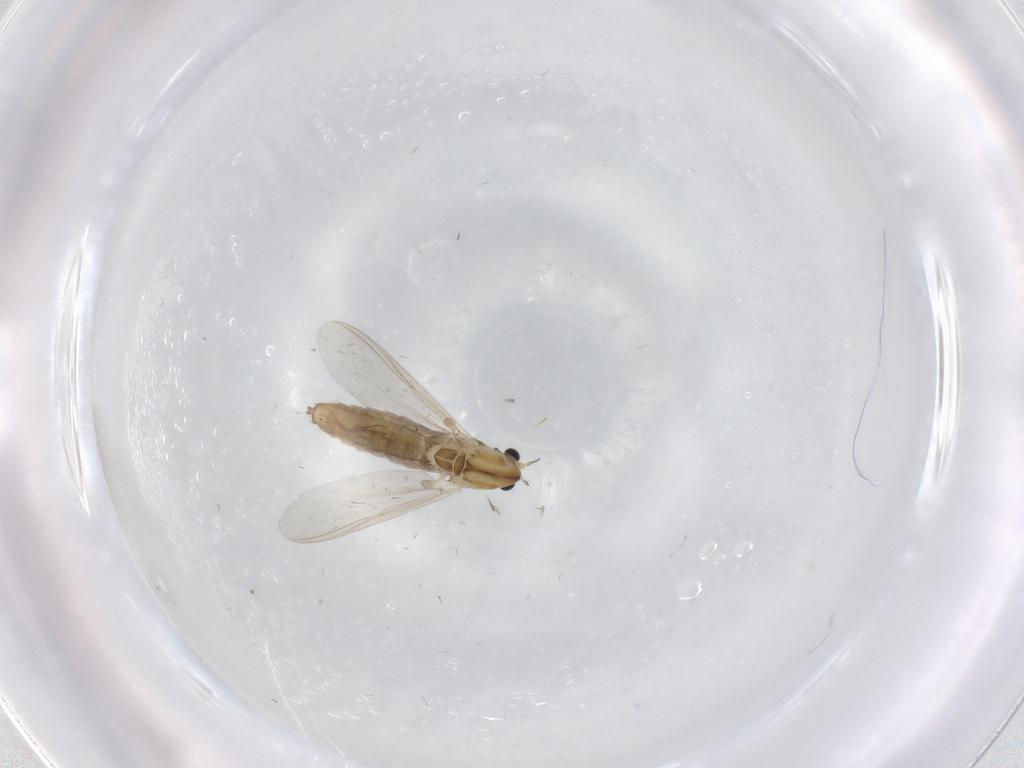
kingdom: Animalia
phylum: Arthropoda
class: Insecta
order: Diptera
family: Chironomidae
